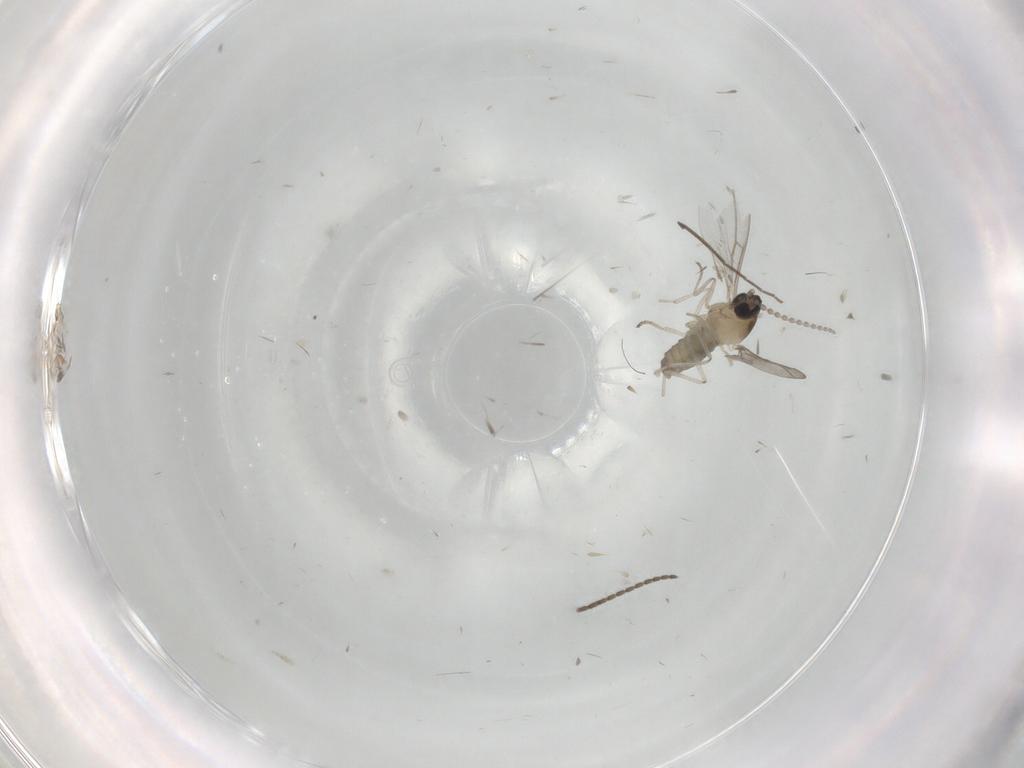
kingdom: Animalia
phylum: Arthropoda
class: Insecta
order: Diptera
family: Cecidomyiidae
